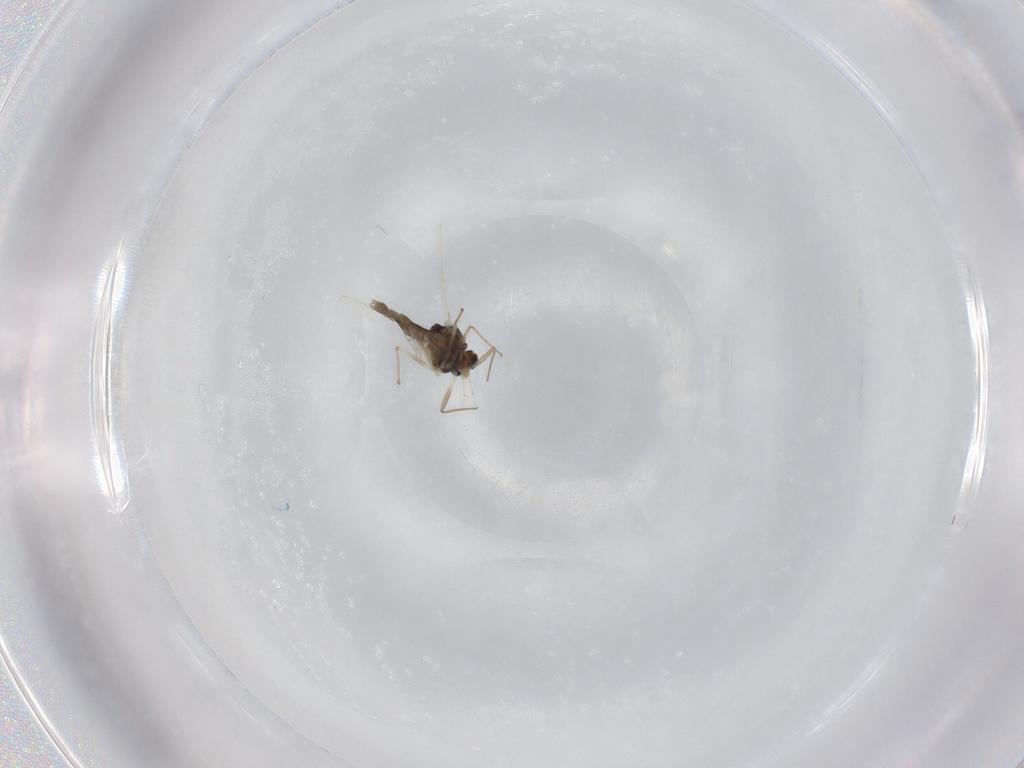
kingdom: Animalia
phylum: Arthropoda
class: Insecta
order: Diptera
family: Chironomidae
